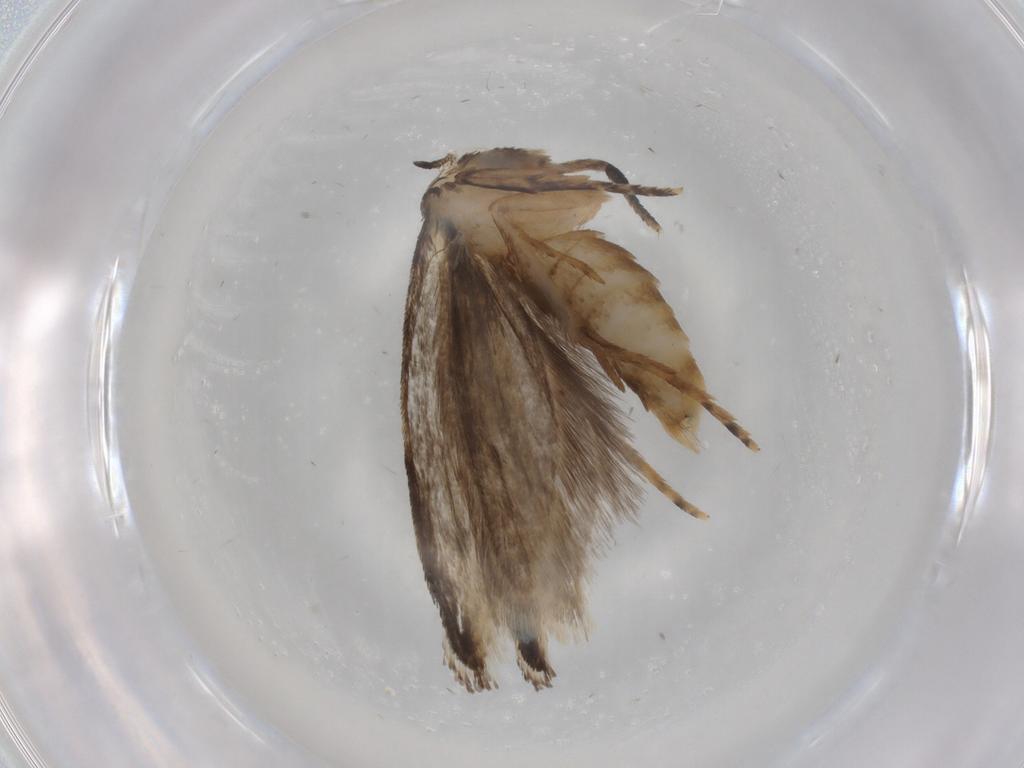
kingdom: Animalia
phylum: Arthropoda
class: Insecta
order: Lepidoptera
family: Tineidae
